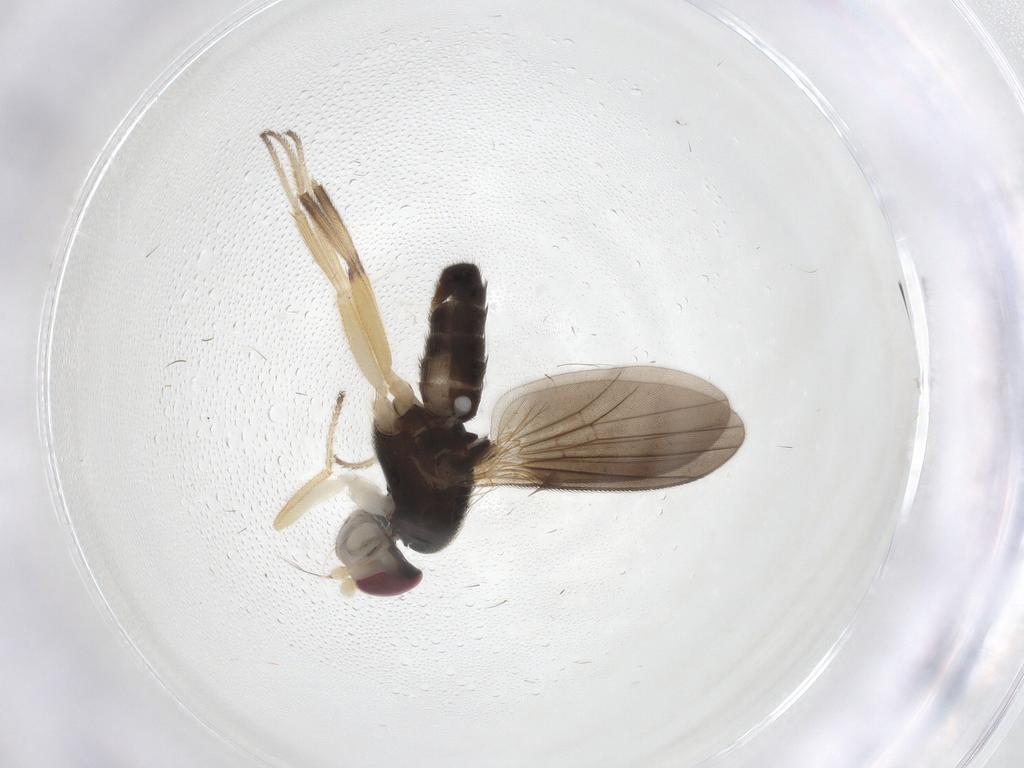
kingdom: Animalia
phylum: Arthropoda
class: Insecta
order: Diptera
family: Clusiidae
